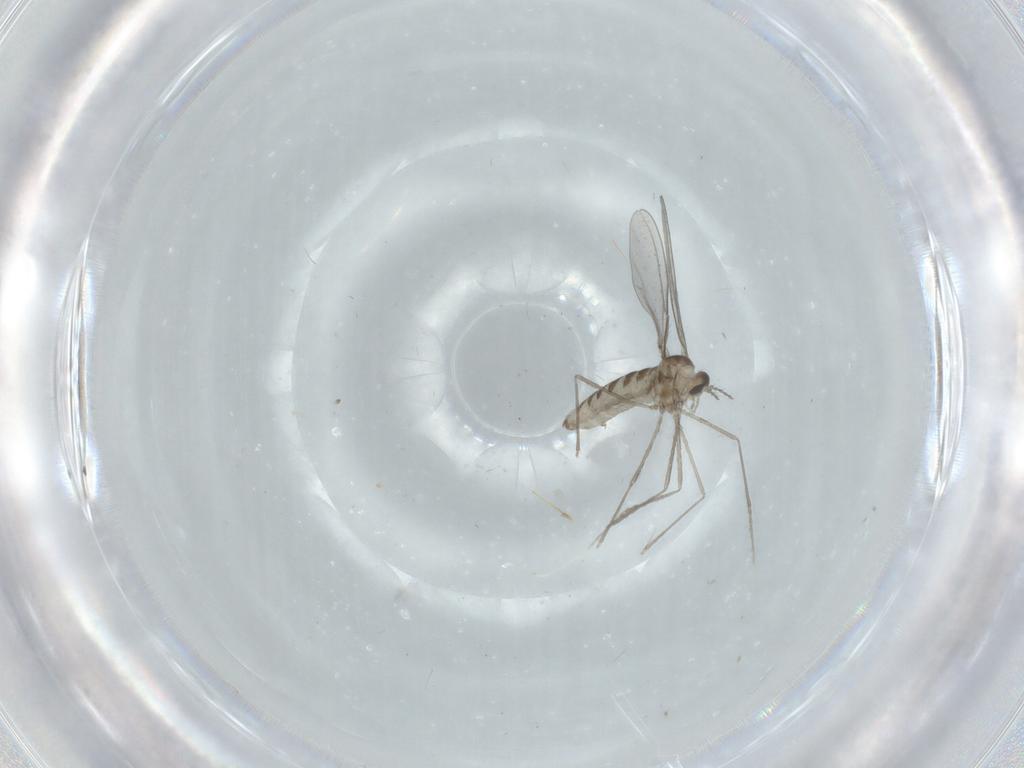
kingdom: Animalia
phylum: Arthropoda
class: Insecta
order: Diptera
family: Cecidomyiidae
